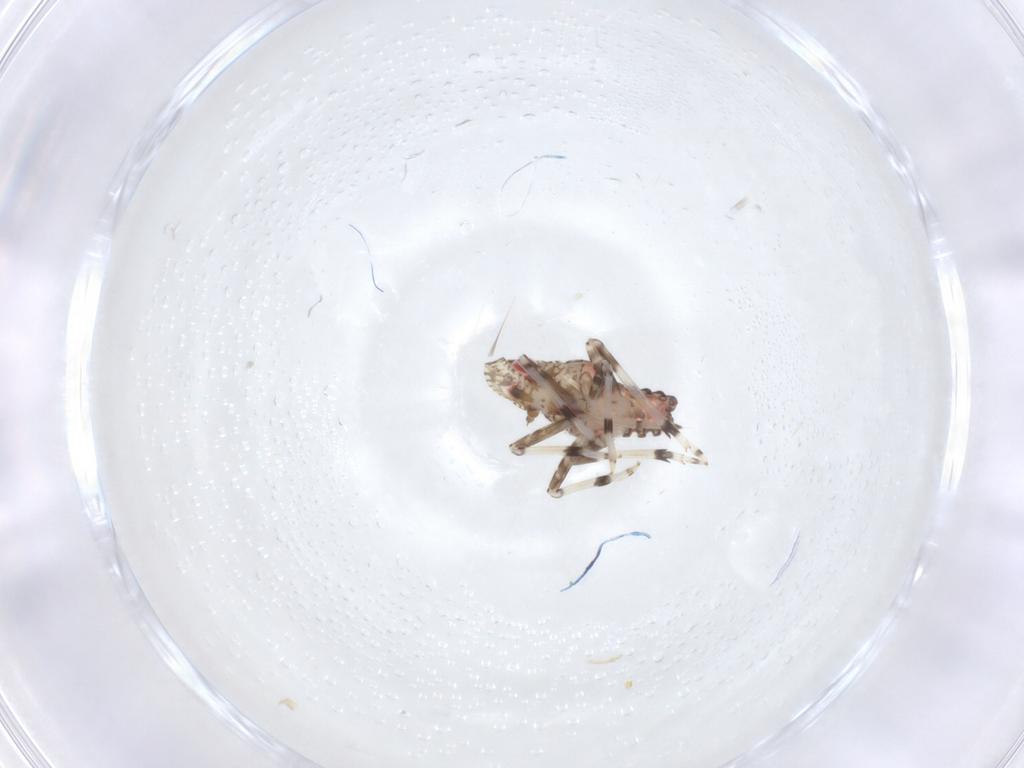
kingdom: Animalia
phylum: Arthropoda
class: Insecta
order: Hemiptera
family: Dictyopharidae
